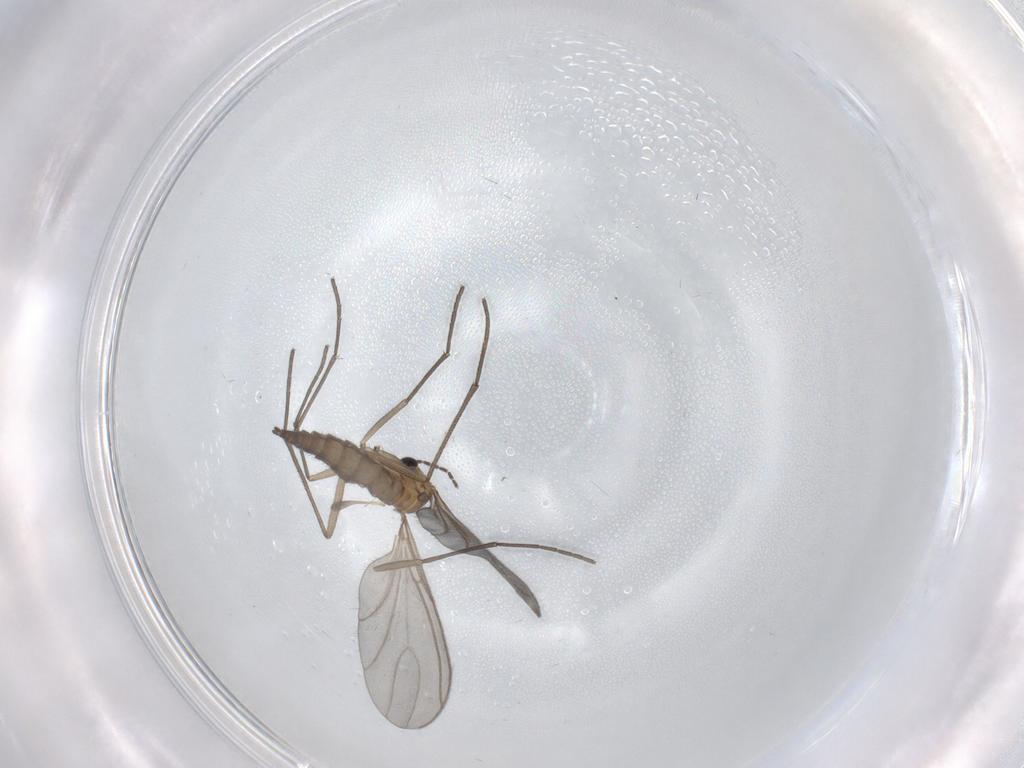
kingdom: Animalia
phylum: Arthropoda
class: Insecta
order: Diptera
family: Sciaridae
